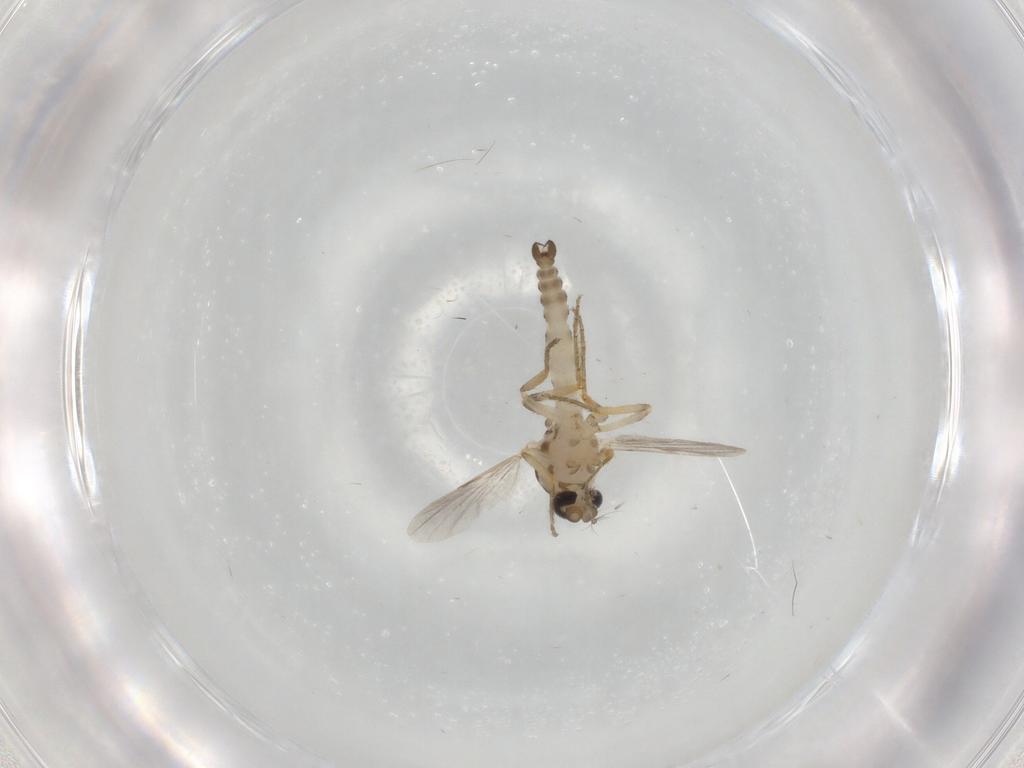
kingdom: Animalia
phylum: Arthropoda
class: Insecta
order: Diptera
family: Ceratopogonidae
